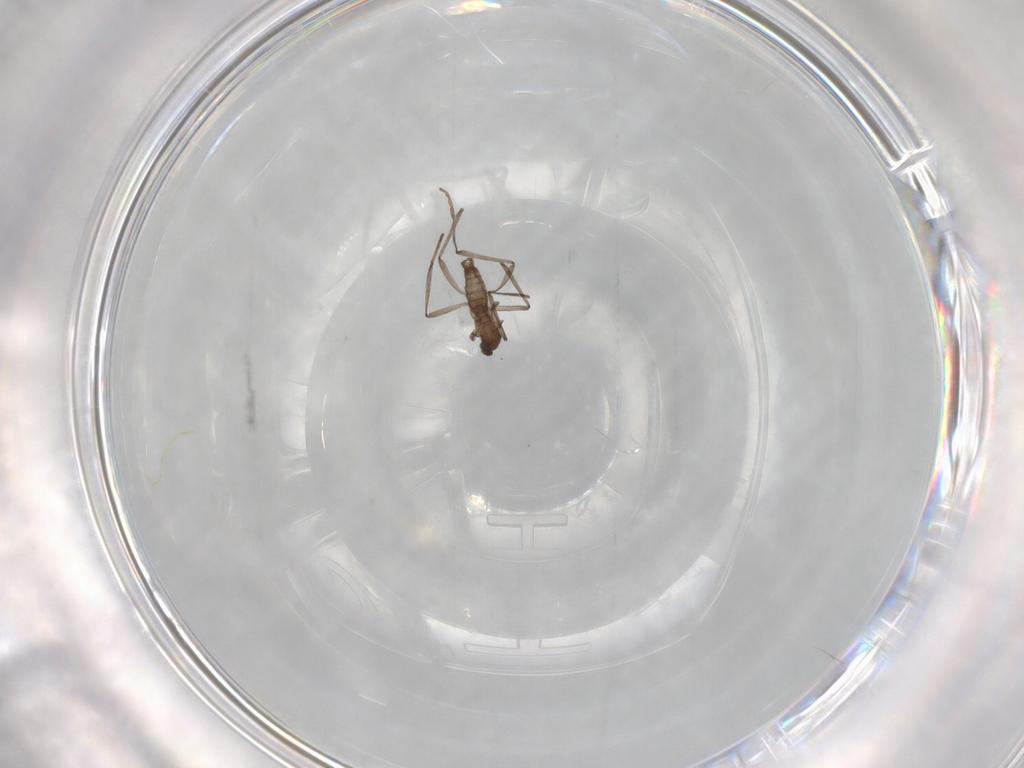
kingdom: Animalia
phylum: Arthropoda
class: Insecta
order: Diptera
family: Cecidomyiidae
